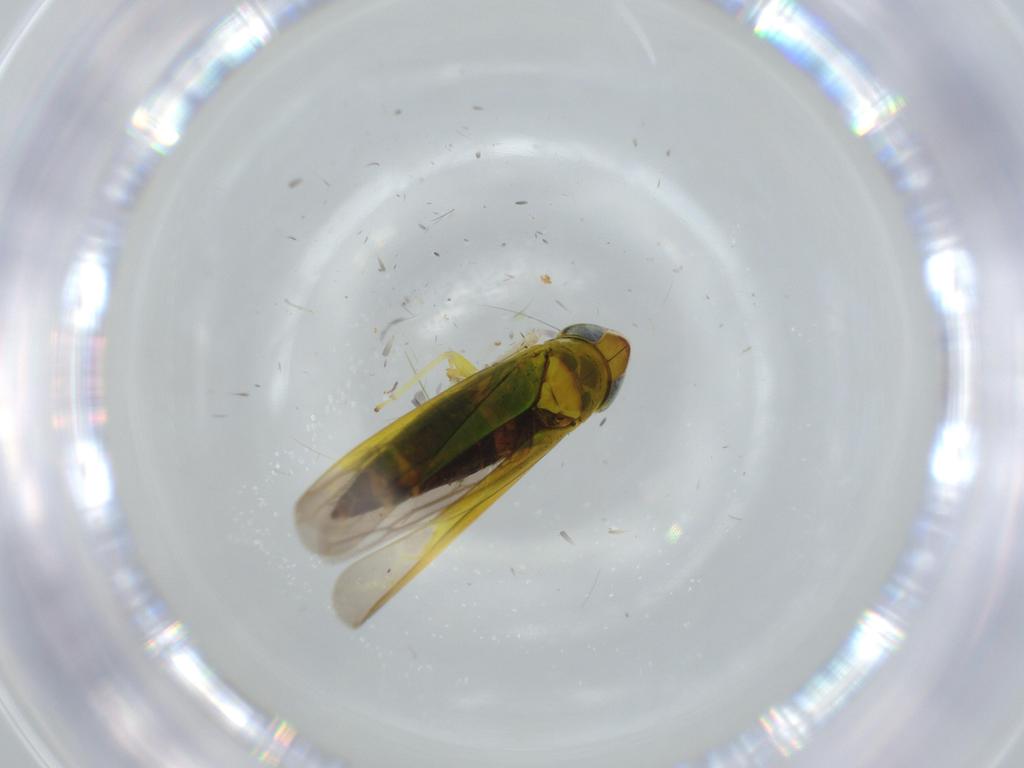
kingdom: Animalia
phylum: Arthropoda
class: Insecta
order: Hemiptera
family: Cicadellidae
